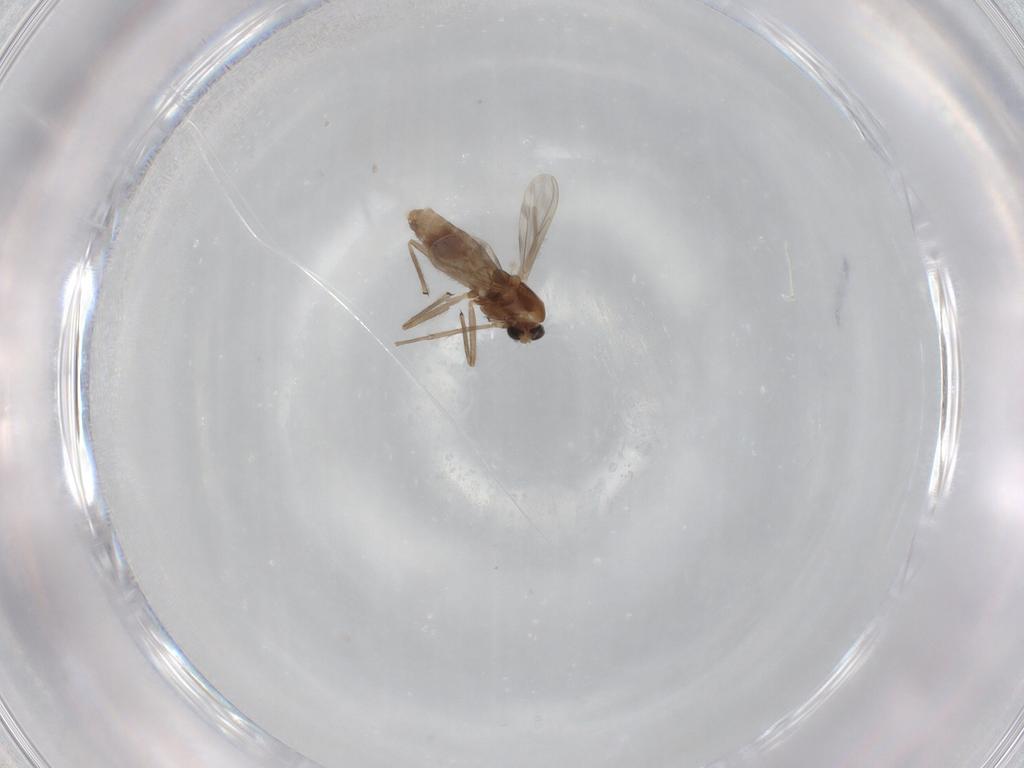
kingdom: Animalia
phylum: Arthropoda
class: Insecta
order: Diptera
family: Chironomidae
